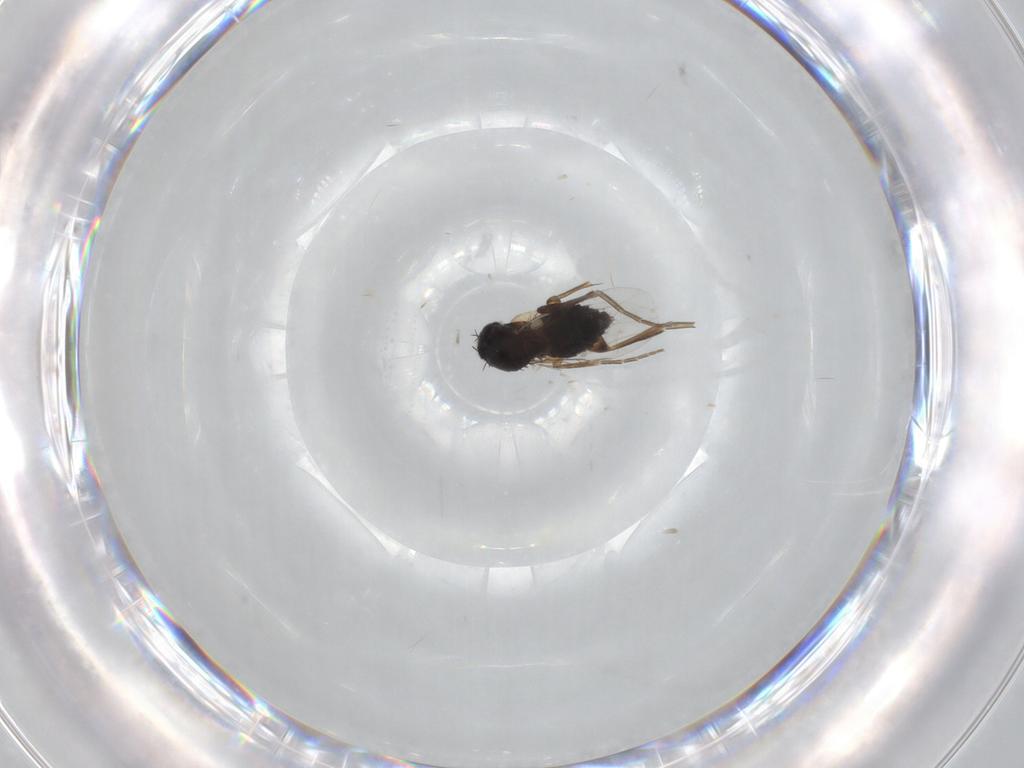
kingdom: Animalia
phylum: Arthropoda
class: Insecta
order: Diptera
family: Phoridae
